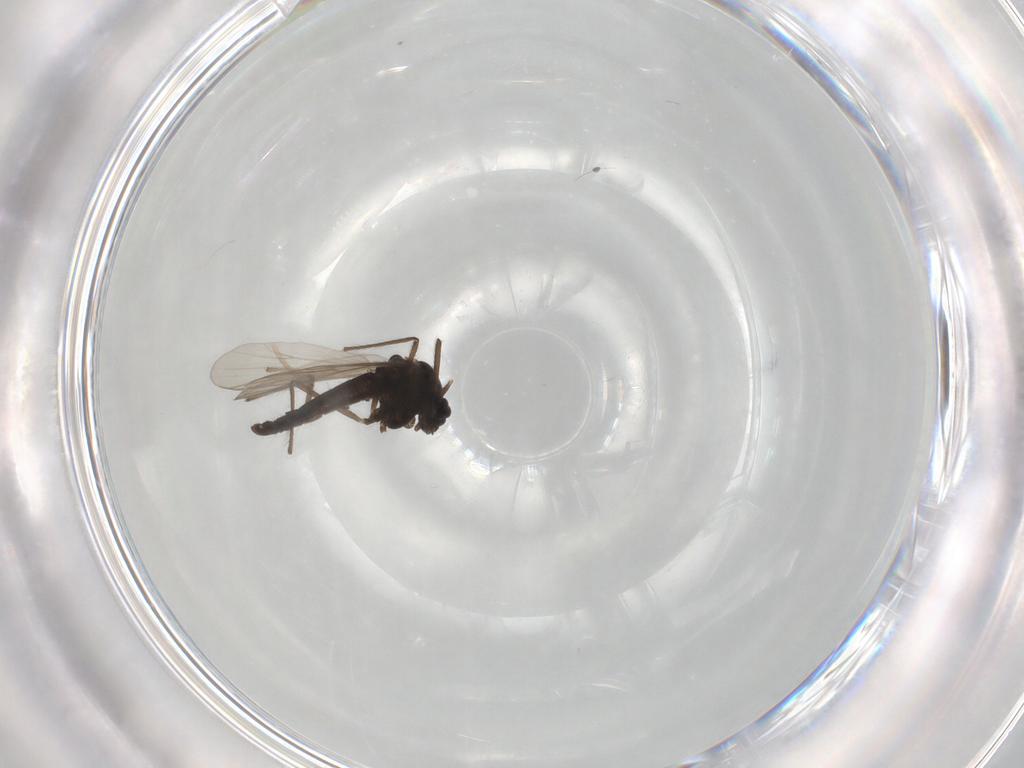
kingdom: Animalia
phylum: Arthropoda
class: Insecta
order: Diptera
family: Chironomidae
